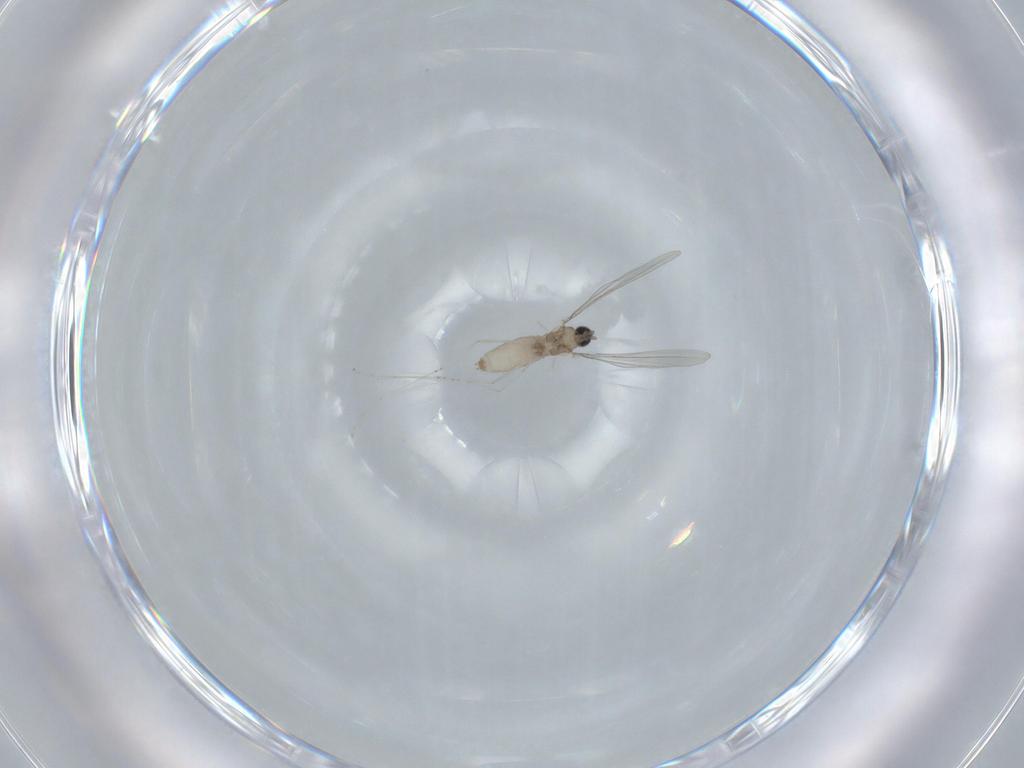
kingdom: Animalia
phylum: Arthropoda
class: Insecta
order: Diptera
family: Cecidomyiidae
